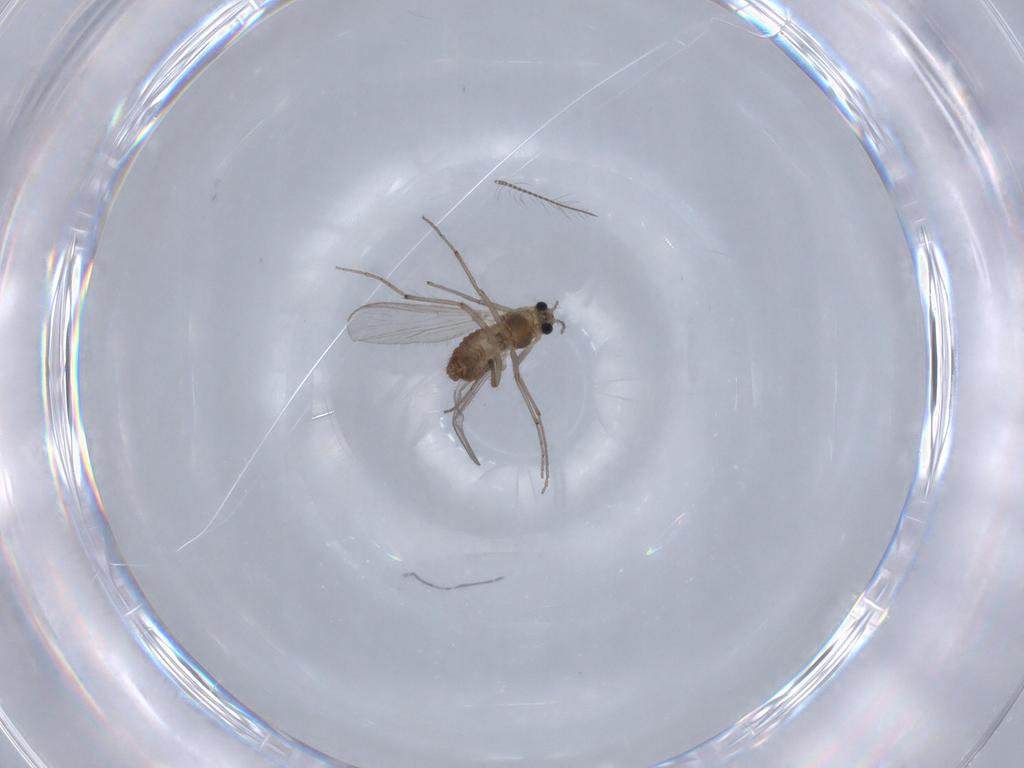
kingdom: Animalia
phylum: Arthropoda
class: Insecta
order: Diptera
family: Chironomidae
